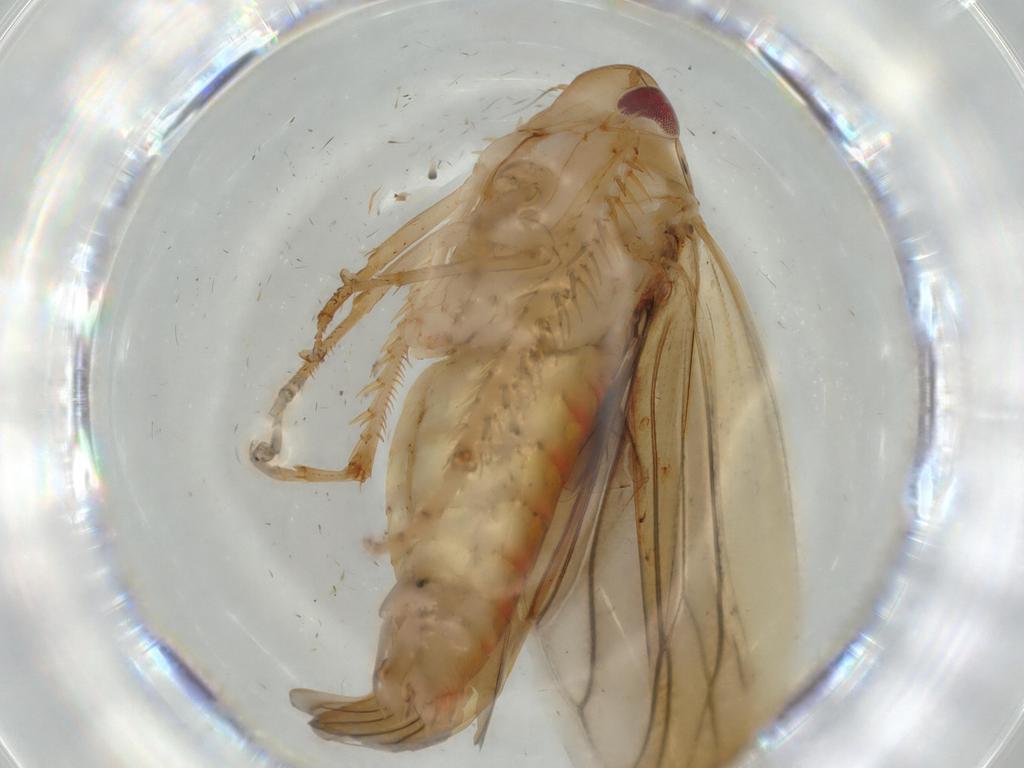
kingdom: Animalia
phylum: Arthropoda
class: Insecta
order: Hemiptera
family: Cicadellidae
